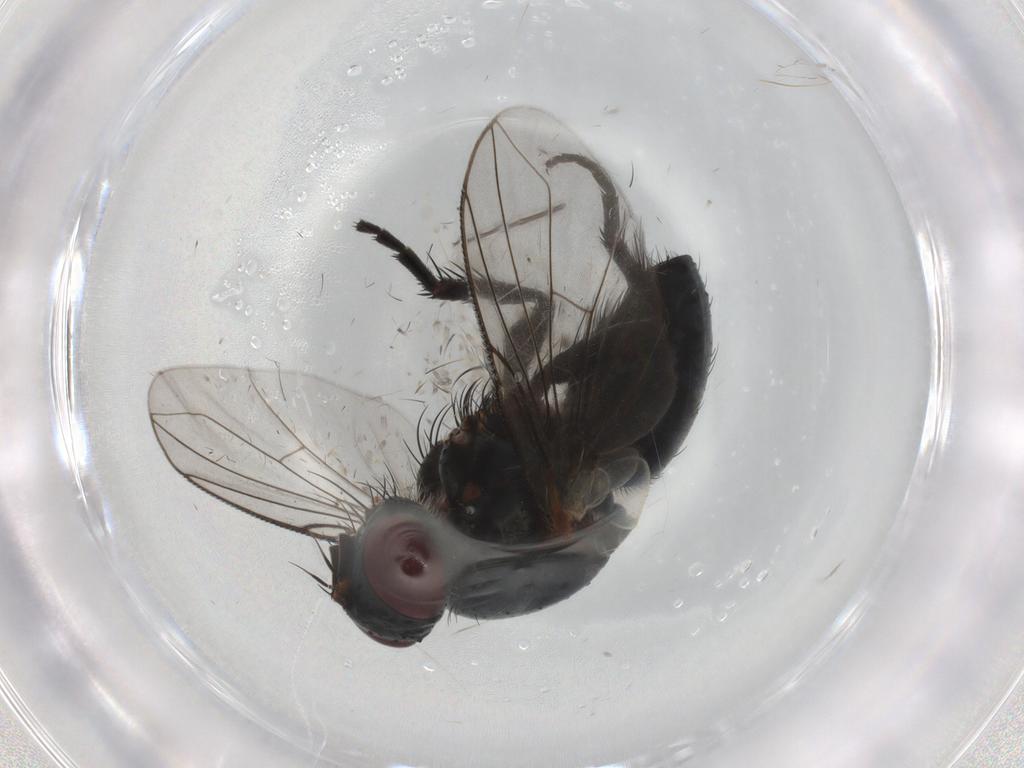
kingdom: Animalia
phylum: Arthropoda
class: Insecta
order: Diptera
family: Tachinidae
